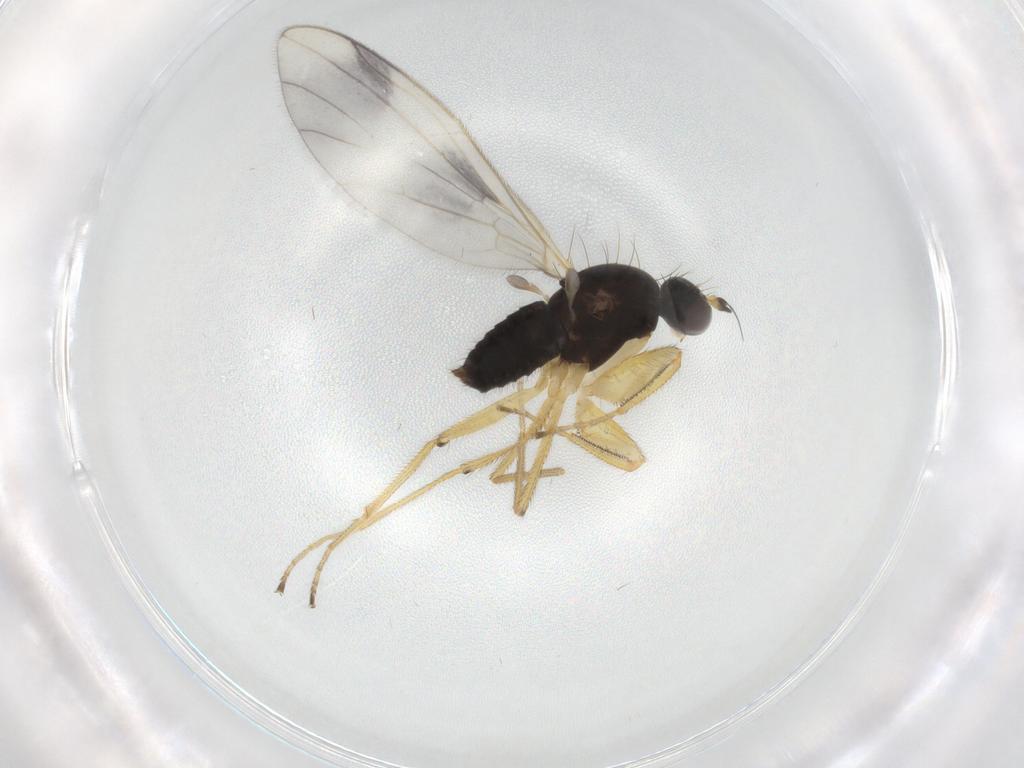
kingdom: Animalia
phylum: Arthropoda
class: Insecta
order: Diptera
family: Chironomidae
